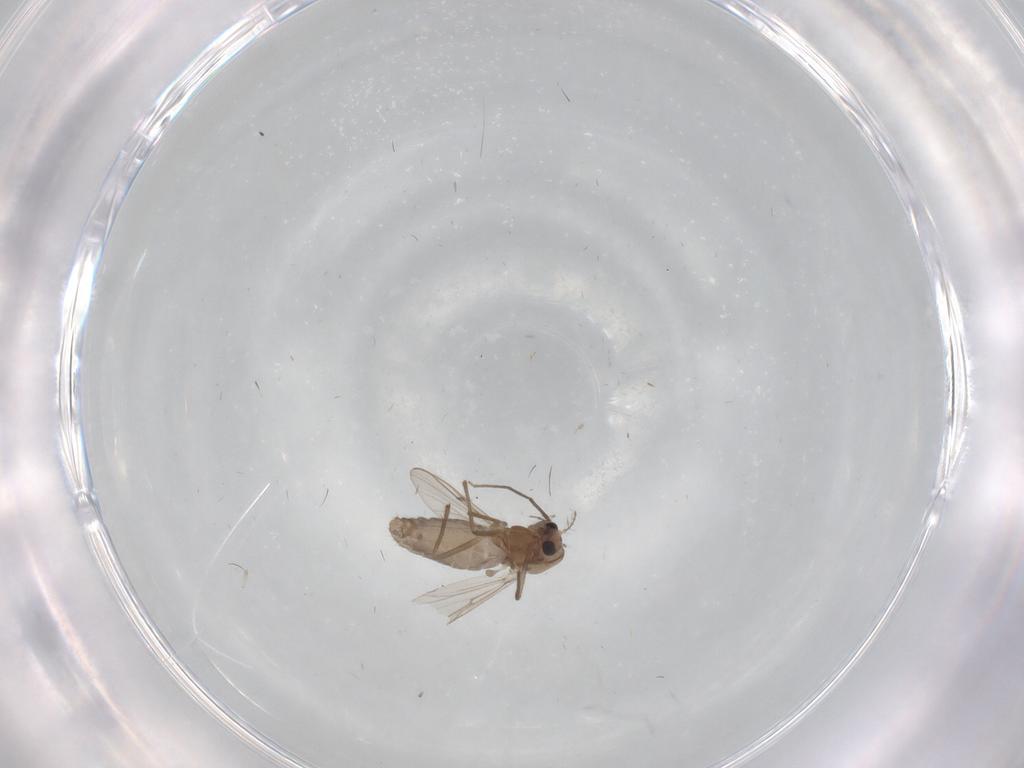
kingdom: Animalia
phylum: Arthropoda
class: Insecta
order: Diptera
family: Chironomidae
